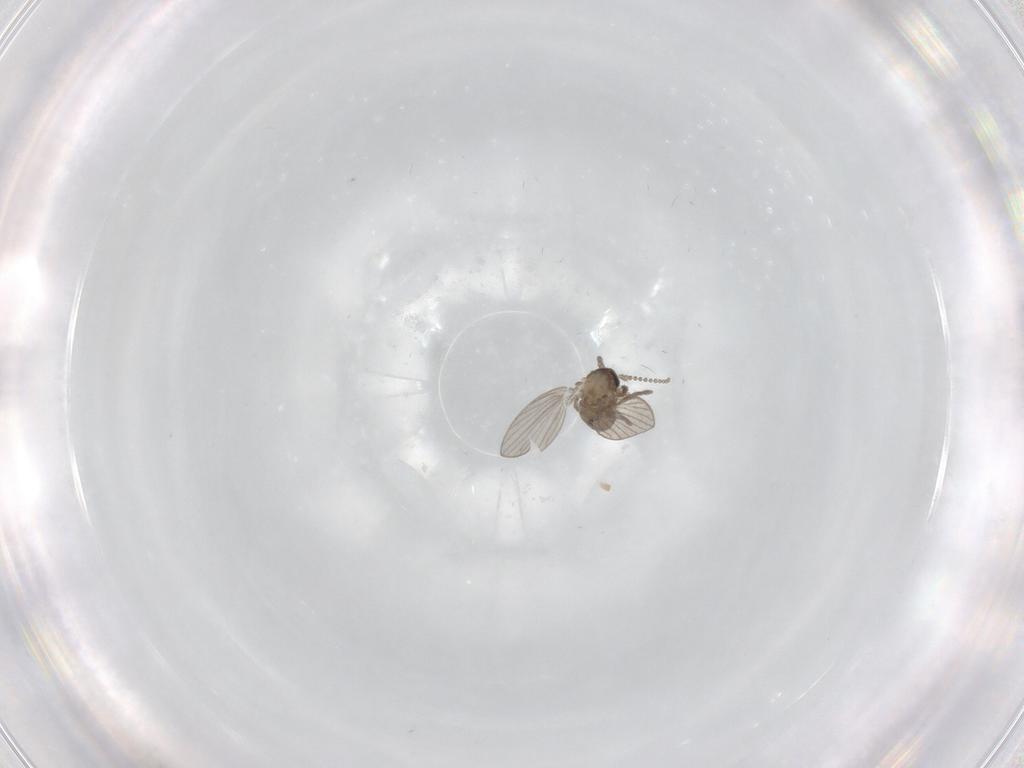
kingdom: Animalia
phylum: Arthropoda
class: Insecta
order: Diptera
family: Psychodidae
